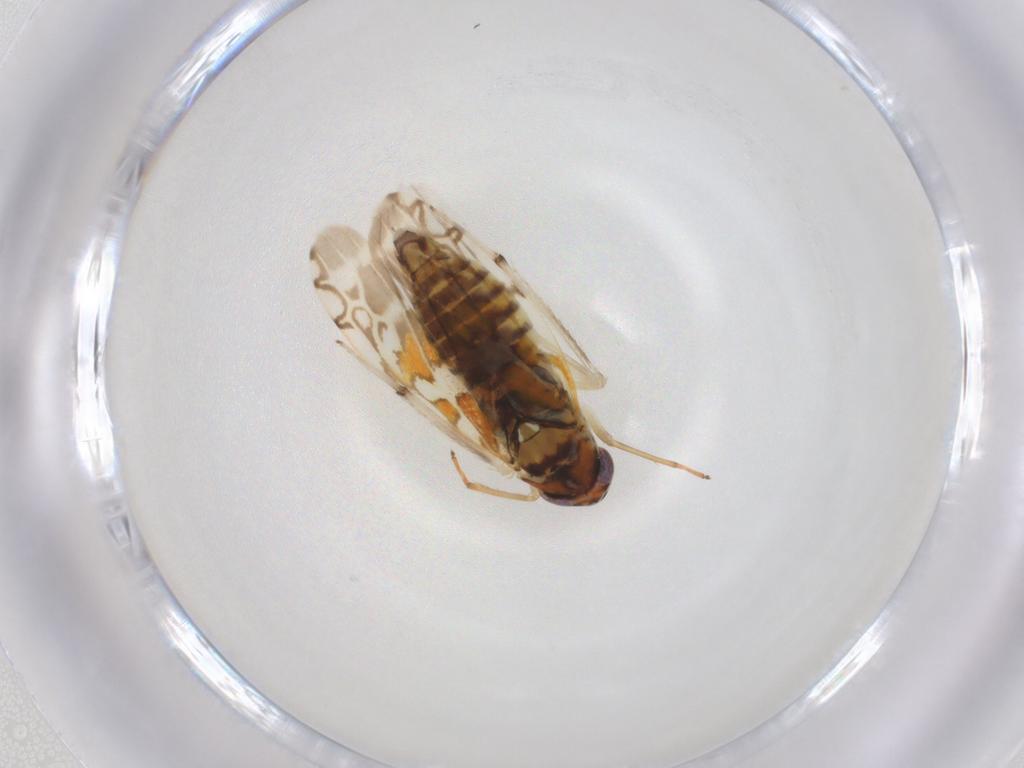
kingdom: Animalia
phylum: Arthropoda
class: Insecta
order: Hemiptera
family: Cicadellidae
